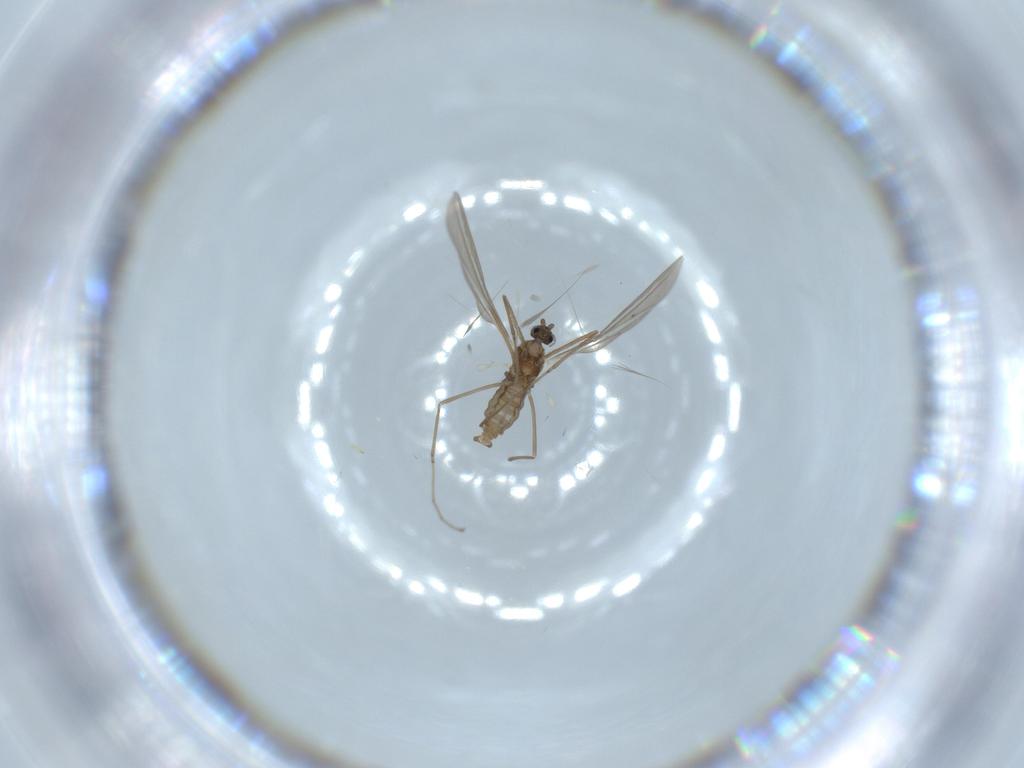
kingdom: Animalia
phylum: Arthropoda
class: Insecta
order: Diptera
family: Cecidomyiidae
